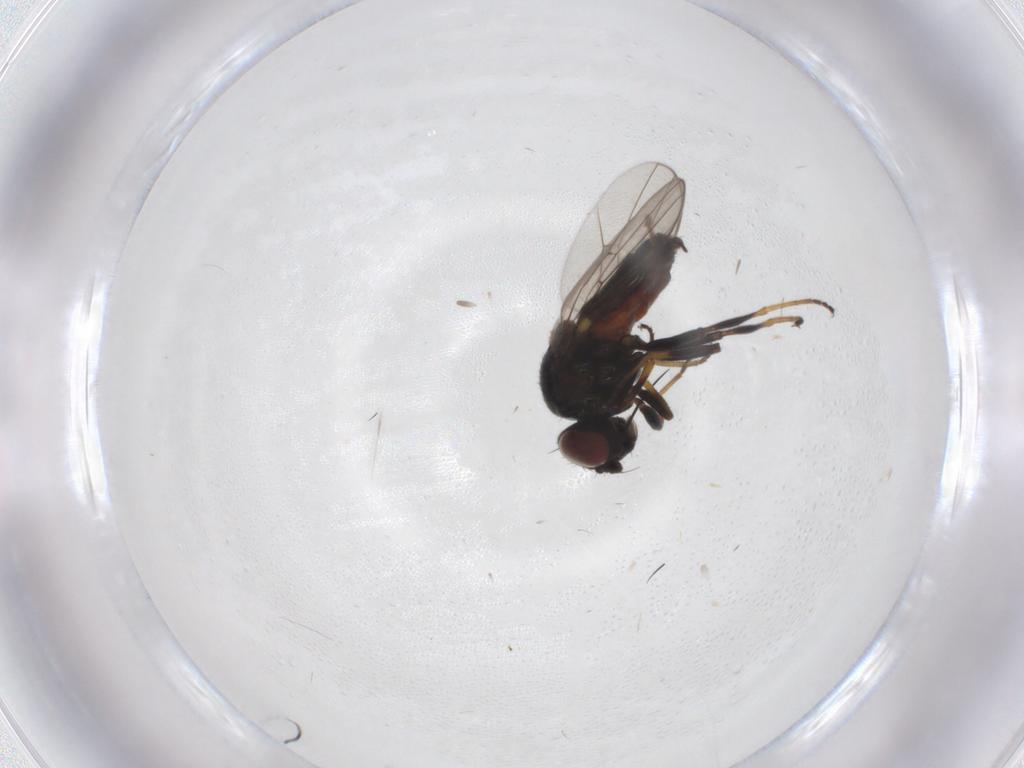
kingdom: Animalia
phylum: Arthropoda
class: Insecta
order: Diptera
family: Chloropidae
